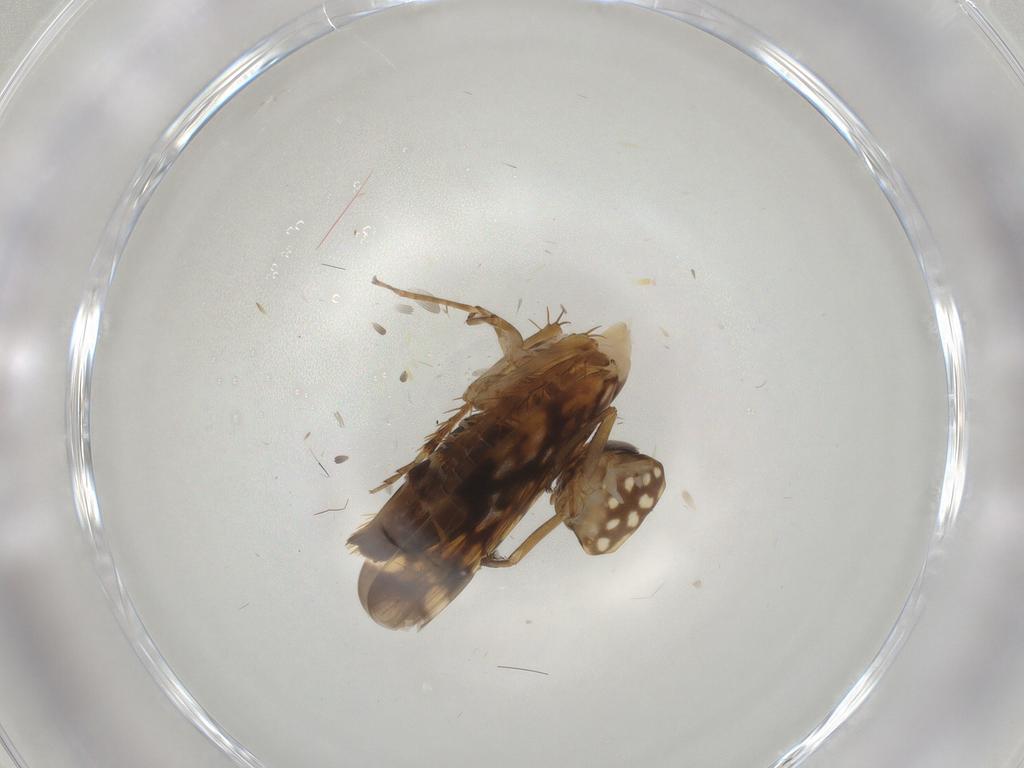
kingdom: Animalia
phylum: Arthropoda
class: Insecta
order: Hemiptera
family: Cicadellidae
